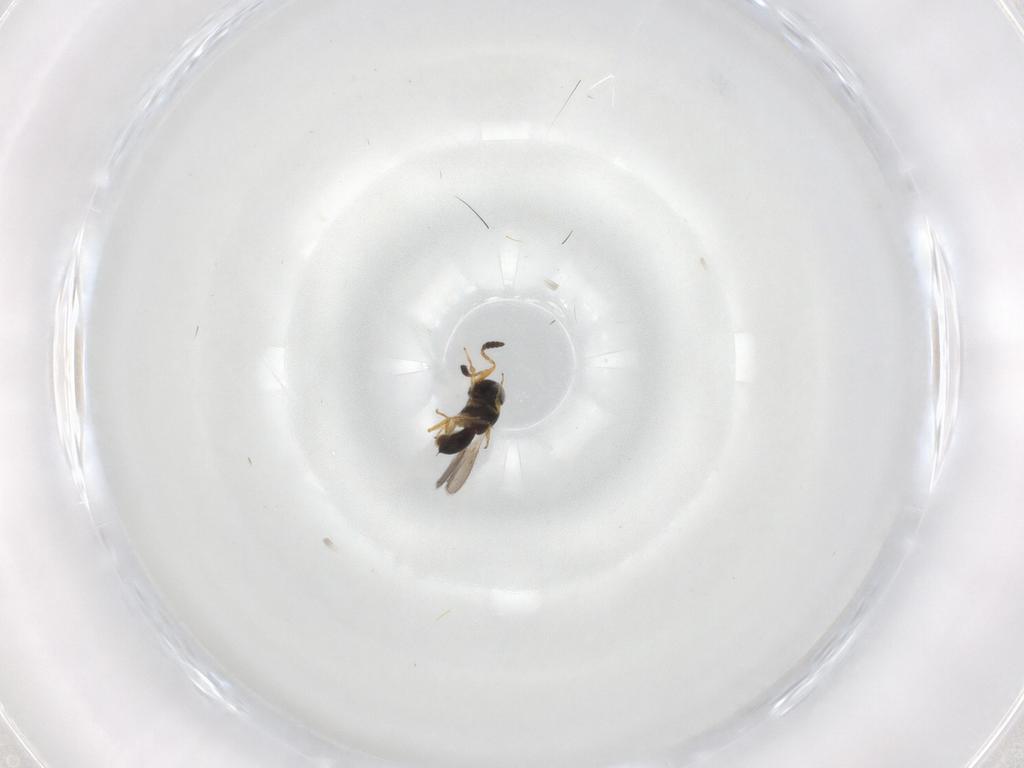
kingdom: Animalia
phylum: Arthropoda
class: Insecta
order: Hymenoptera
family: Scelionidae
